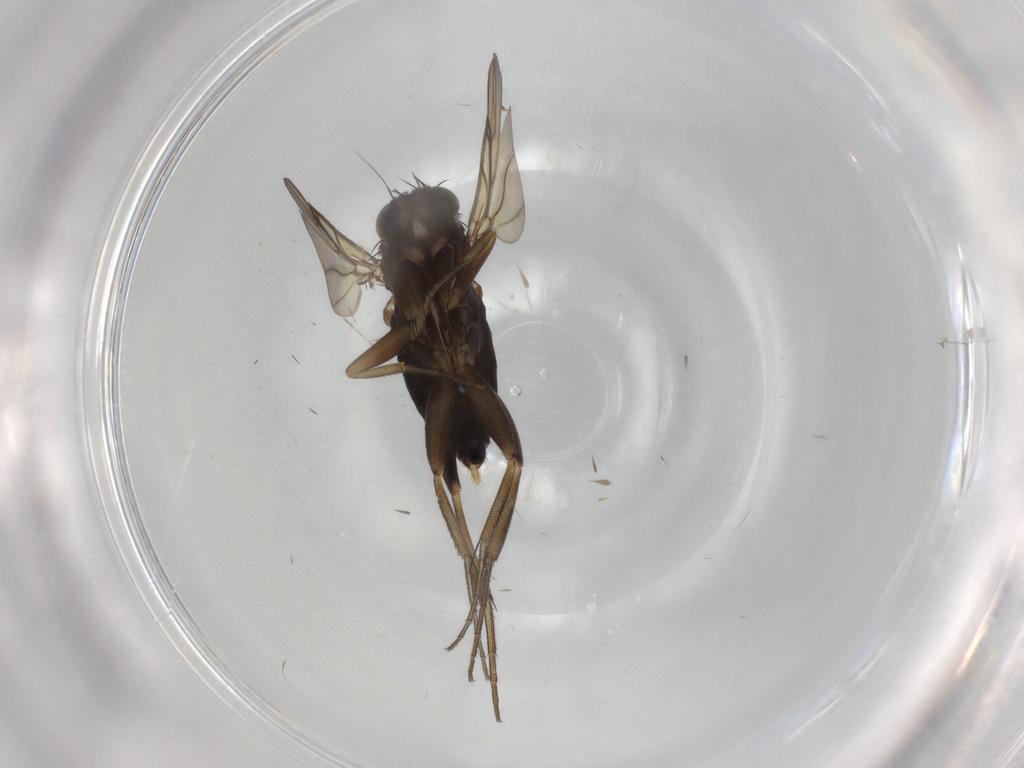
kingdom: Animalia
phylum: Arthropoda
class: Insecta
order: Diptera
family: Phoridae
